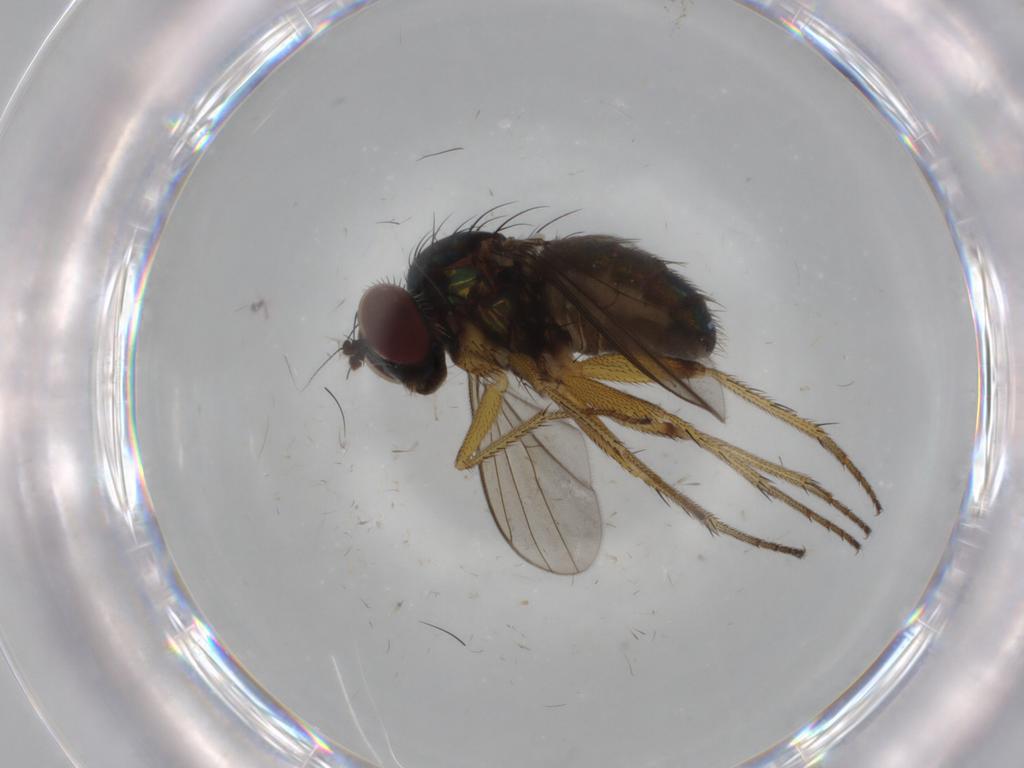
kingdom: Animalia
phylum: Arthropoda
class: Insecta
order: Diptera
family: Dolichopodidae
